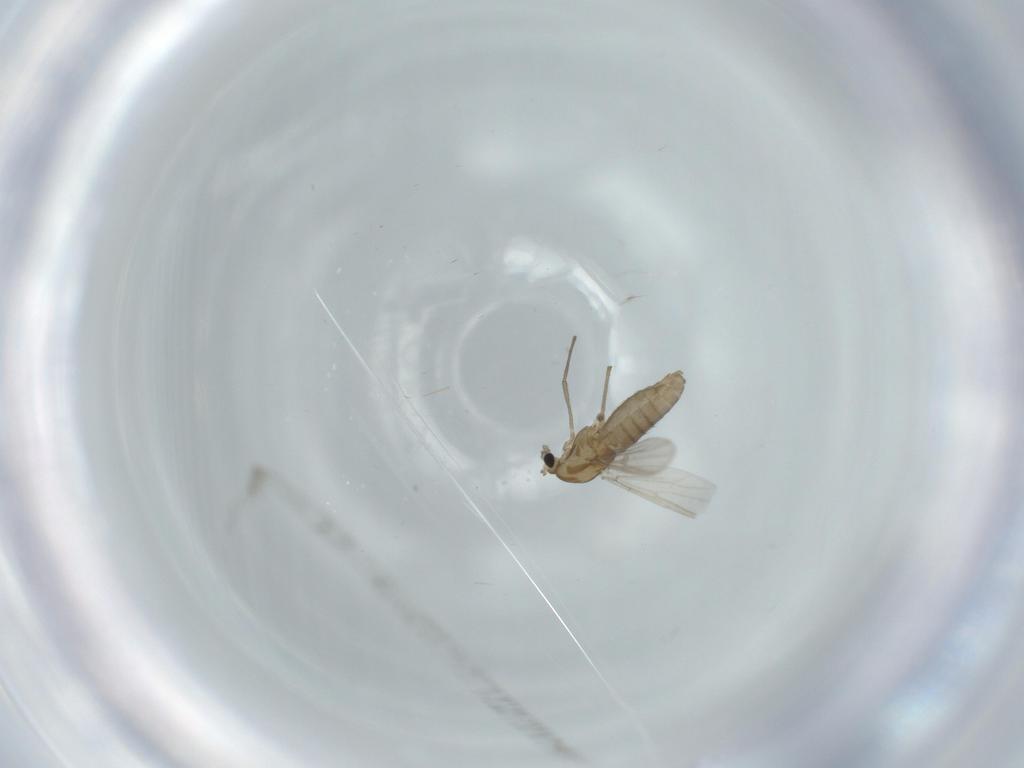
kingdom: Animalia
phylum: Arthropoda
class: Insecta
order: Diptera
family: Chironomidae
